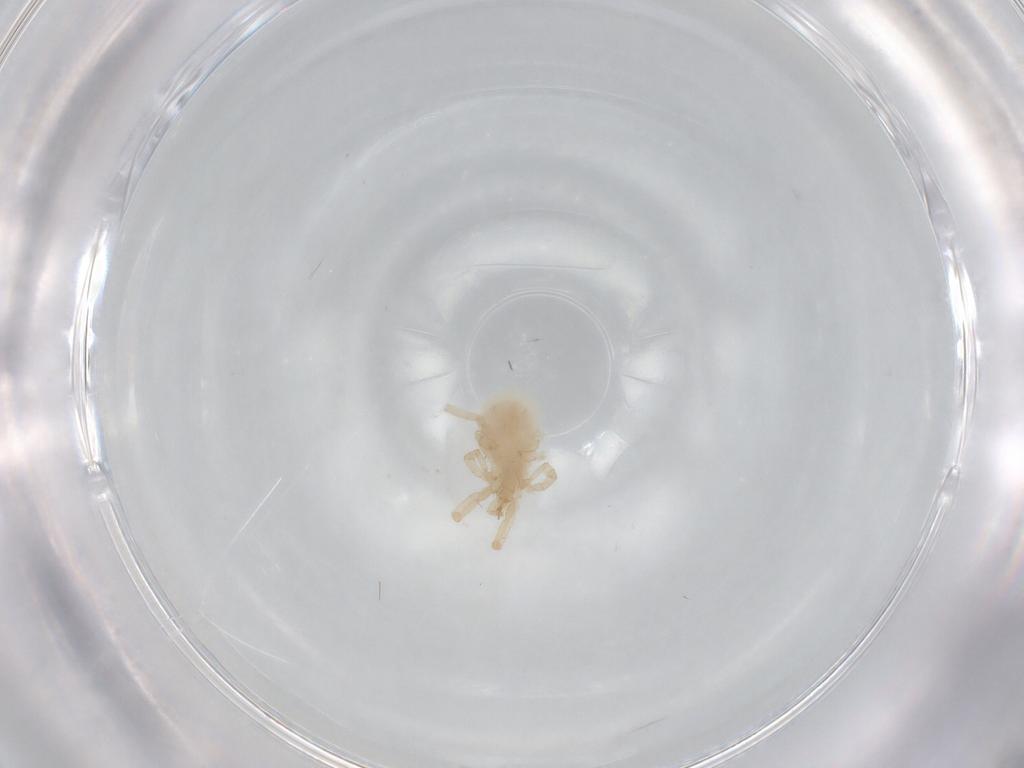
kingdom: Animalia
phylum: Arthropoda
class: Arachnida
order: Trombidiformes
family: Erythraeidae
